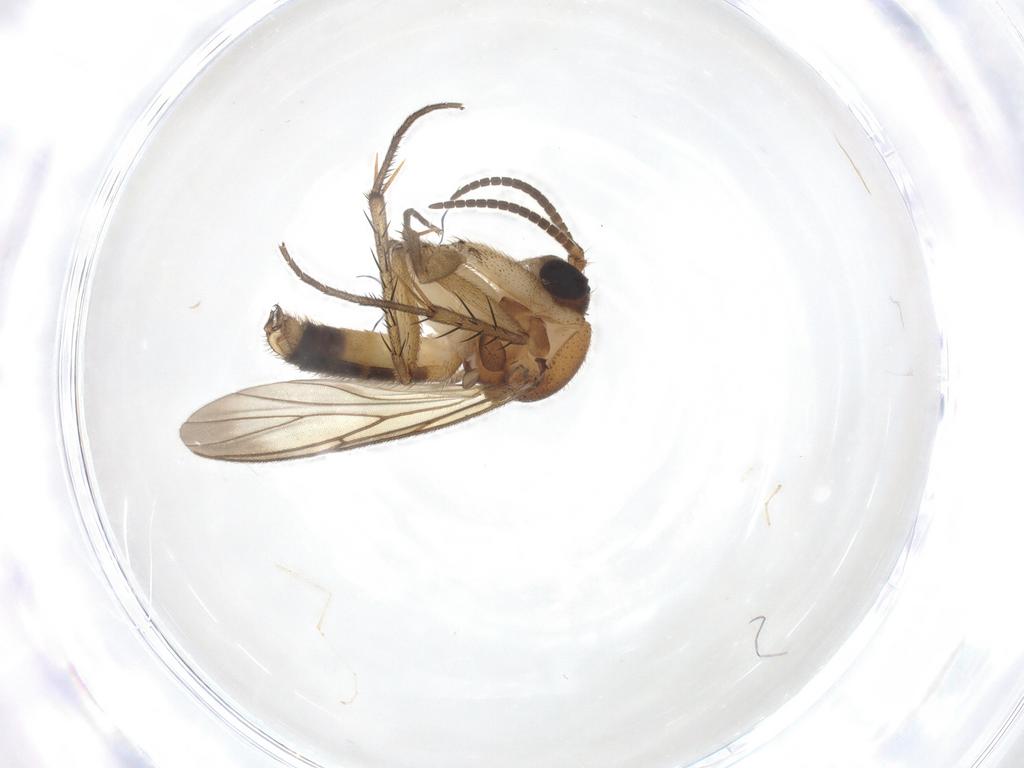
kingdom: Animalia
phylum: Arthropoda
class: Insecta
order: Diptera
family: Mycetophilidae
